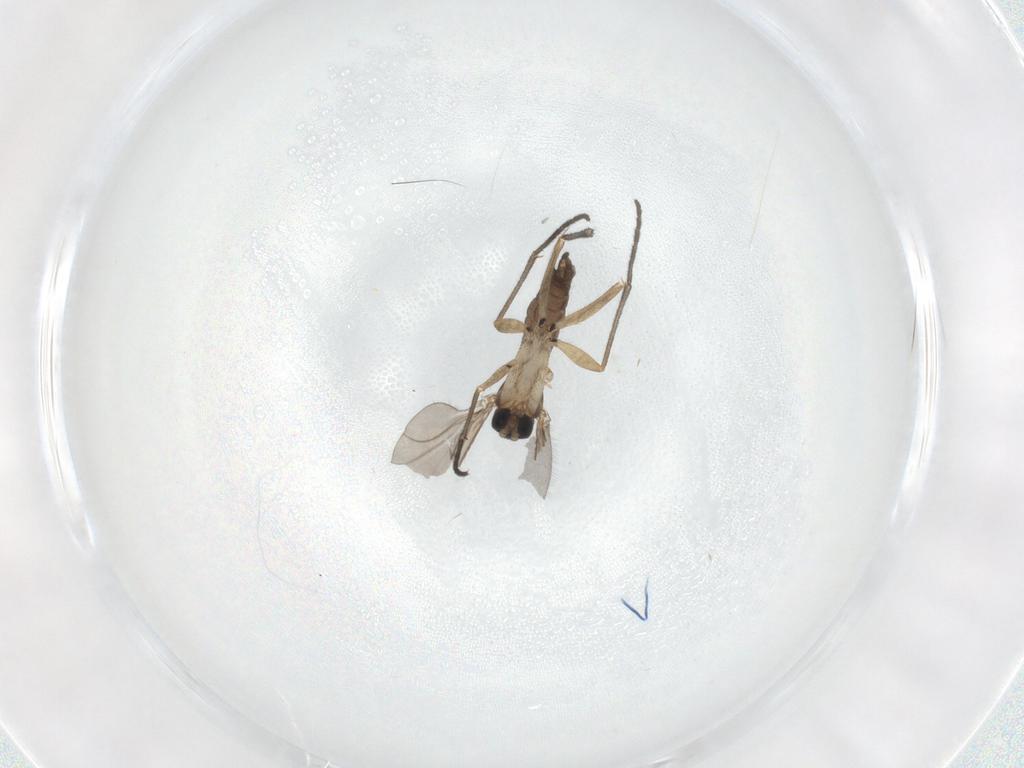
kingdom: Animalia
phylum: Arthropoda
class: Insecta
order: Diptera
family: Sciaridae
